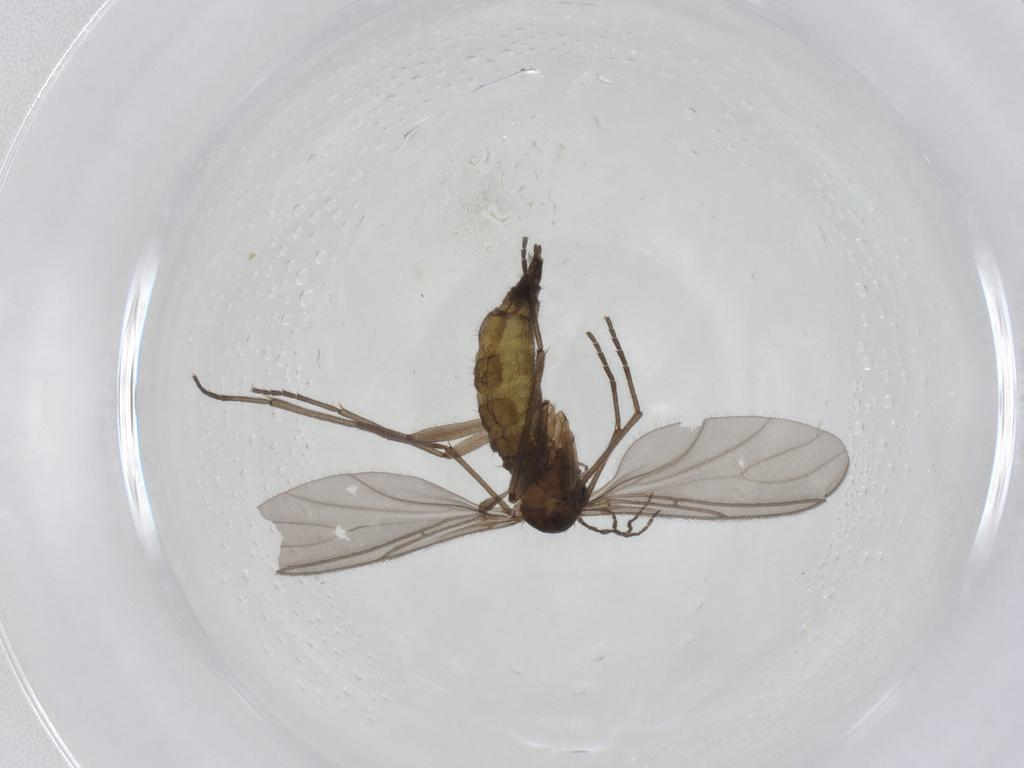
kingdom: Animalia
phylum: Arthropoda
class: Insecta
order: Diptera
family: Sciaridae
